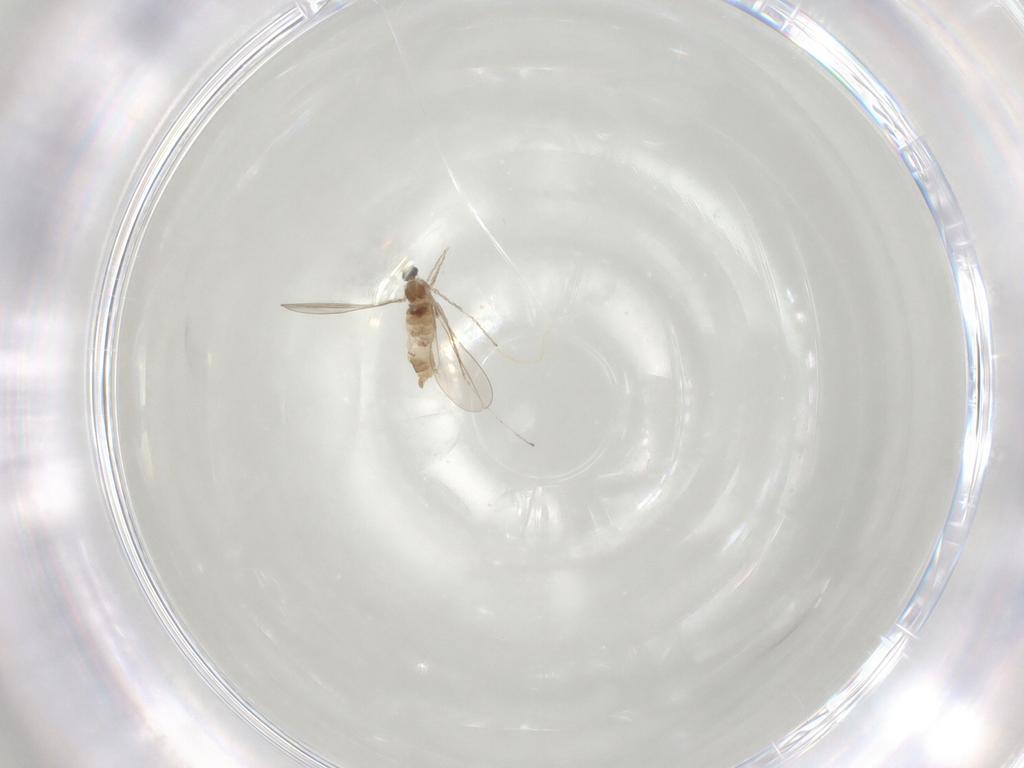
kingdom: Animalia
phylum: Arthropoda
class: Insecta
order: Diptera
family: Cecidomyiidae
